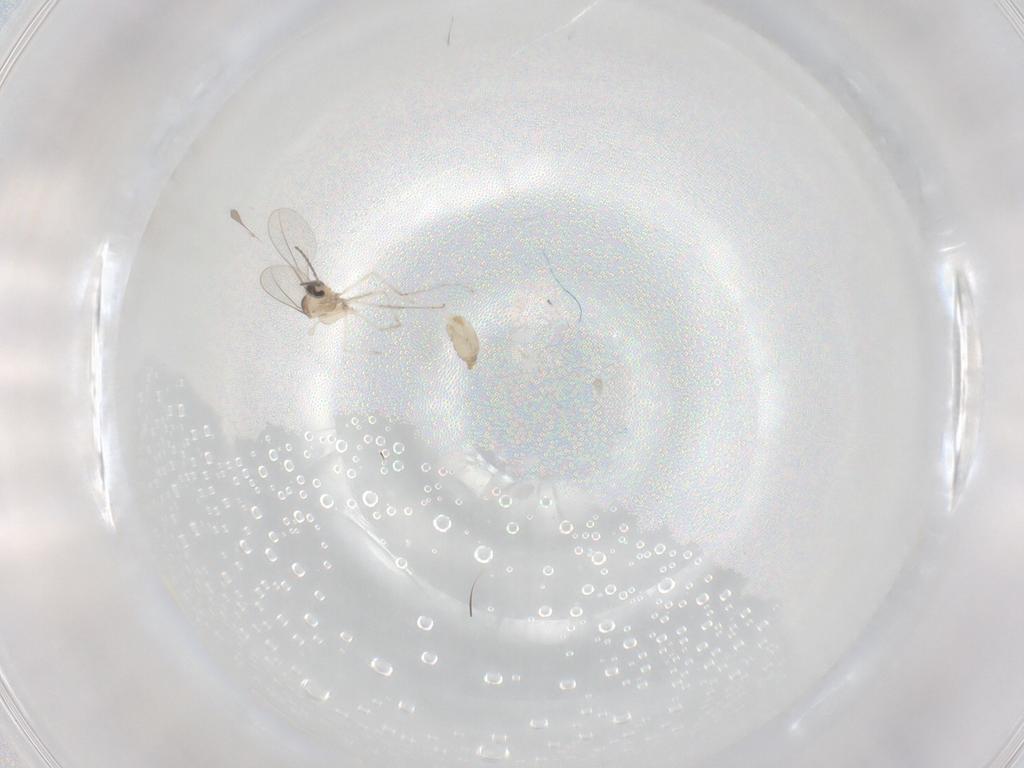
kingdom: Animalia
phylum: Arthropoda
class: Insecta
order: Diptera
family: Cecidomyiidae
